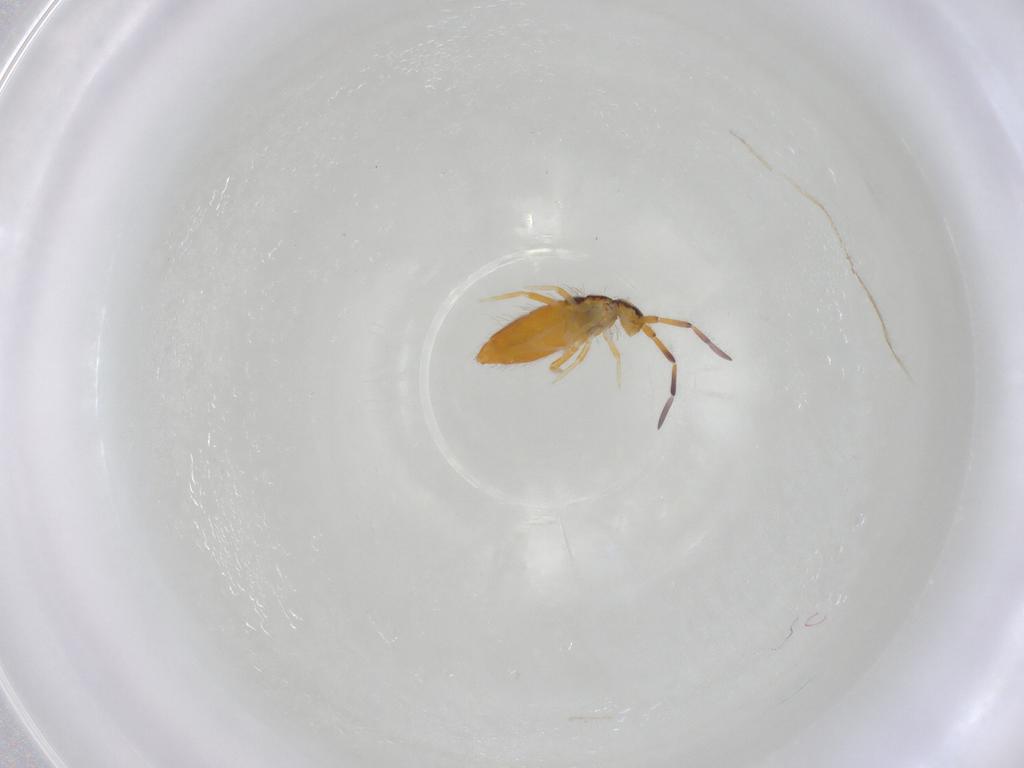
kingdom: Animalia
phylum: Arthropoda
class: Collembola
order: Entomobryomorpha
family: Entomobryidae
